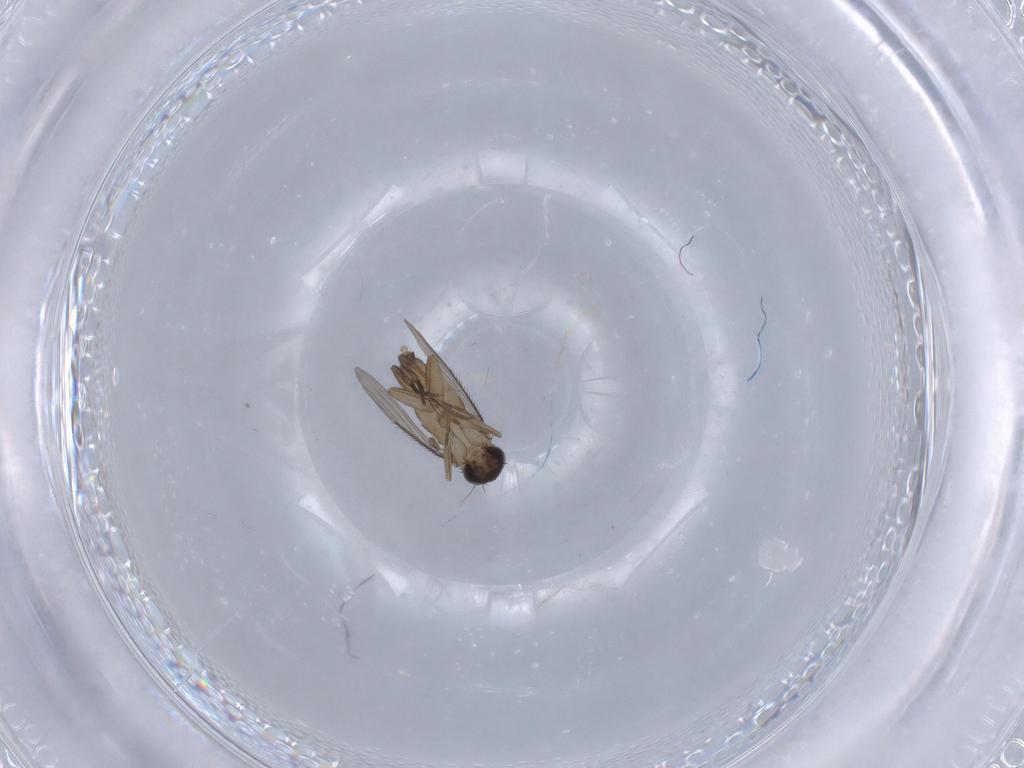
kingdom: Animalia
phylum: Arthropoda
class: Insecta
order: Diptera
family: Phoridae
